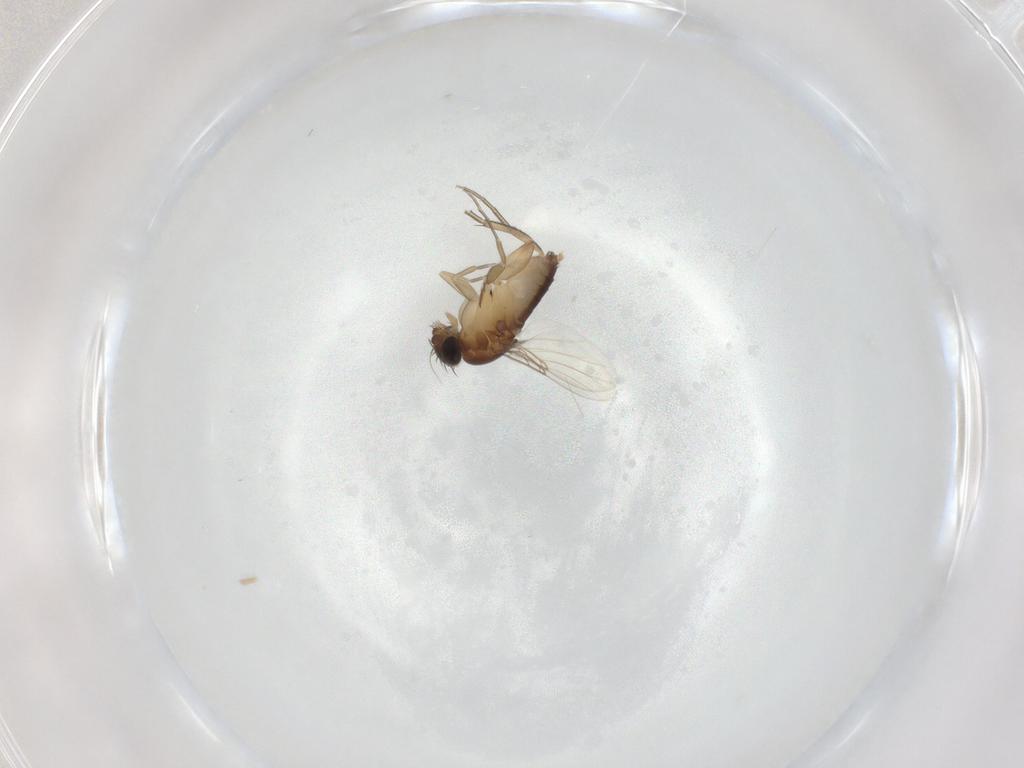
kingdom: Animalia
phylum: Arthropoda
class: Insecta
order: Diptera
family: Phoridae
